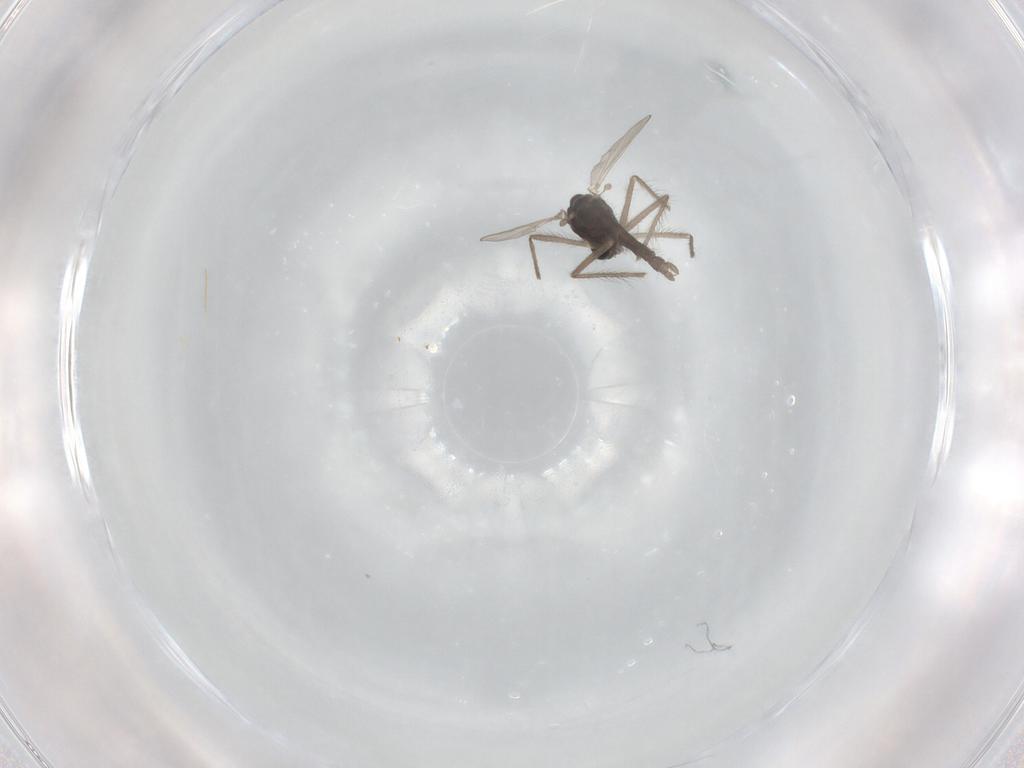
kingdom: Animalia
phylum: Arthropoda
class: Insecta
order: Diptera
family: Chironomidae
